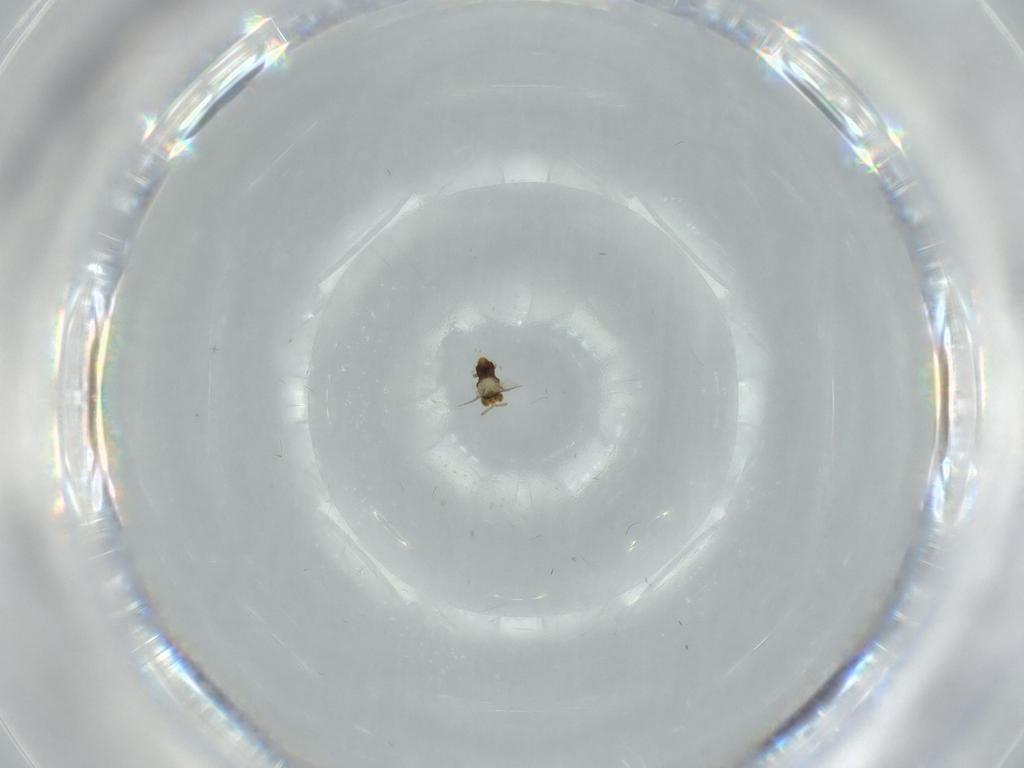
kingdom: Animalia
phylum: Arthropoda
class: Insecta
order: Hymenoptera
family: Aphelinidae
